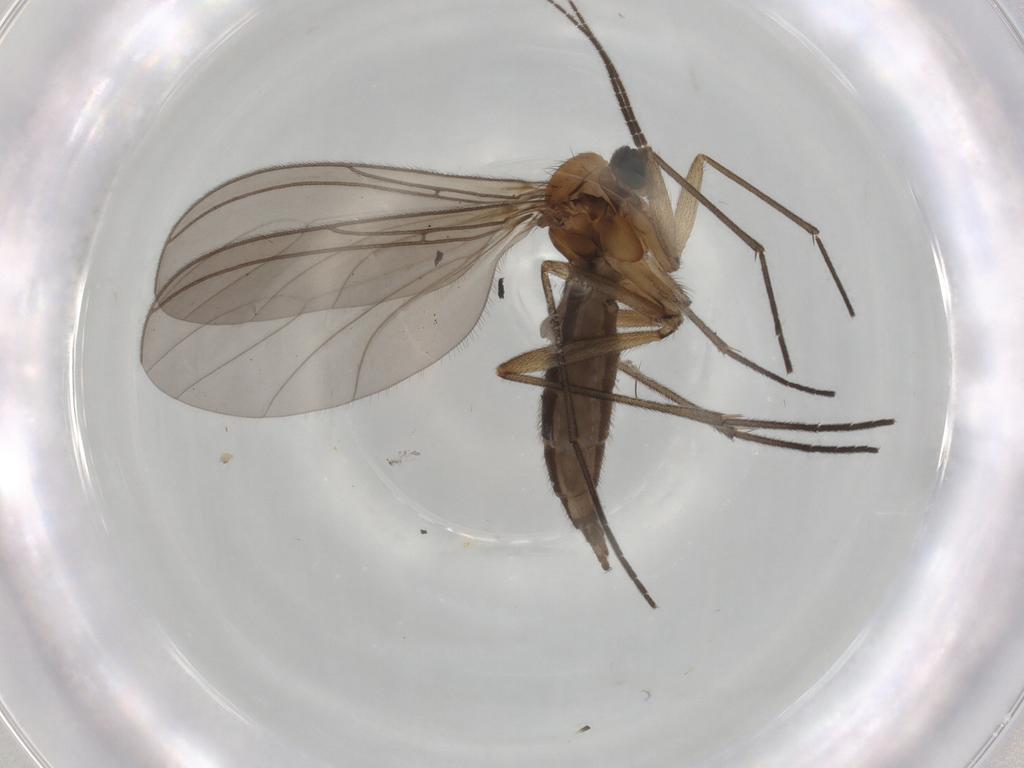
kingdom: Animalia
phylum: Arthropoda
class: Insecta
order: Diptera
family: Sciaridae
